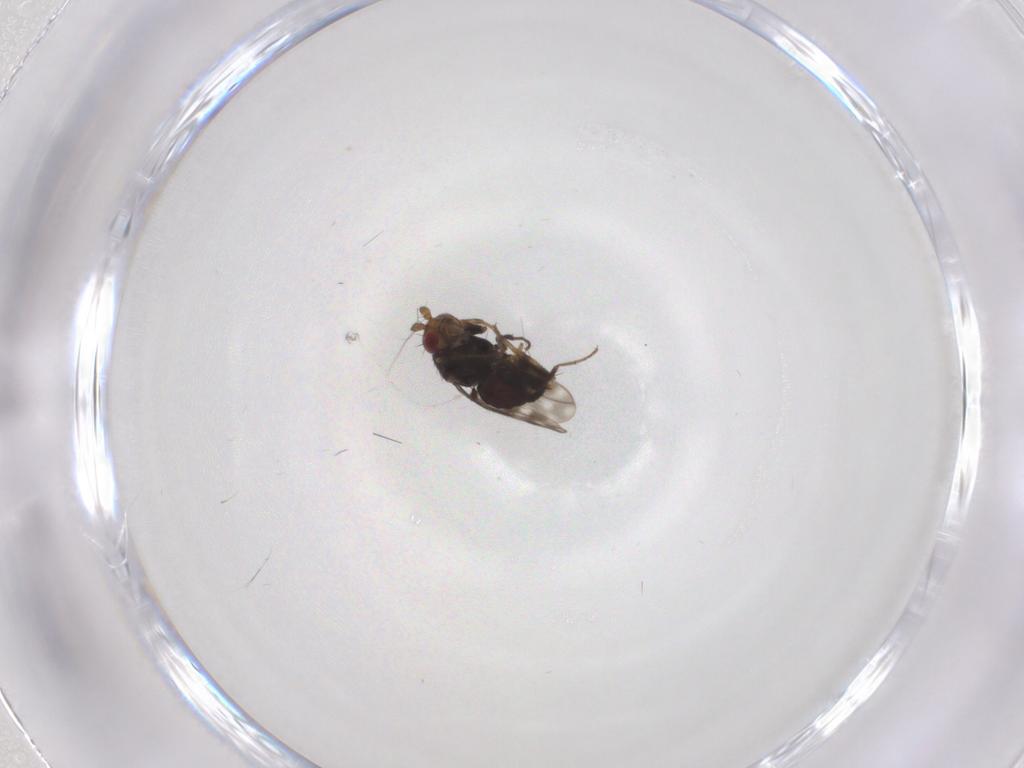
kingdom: Animalia
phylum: Arthropoda
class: Insecta
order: Diptera
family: Sphaeroceridae
